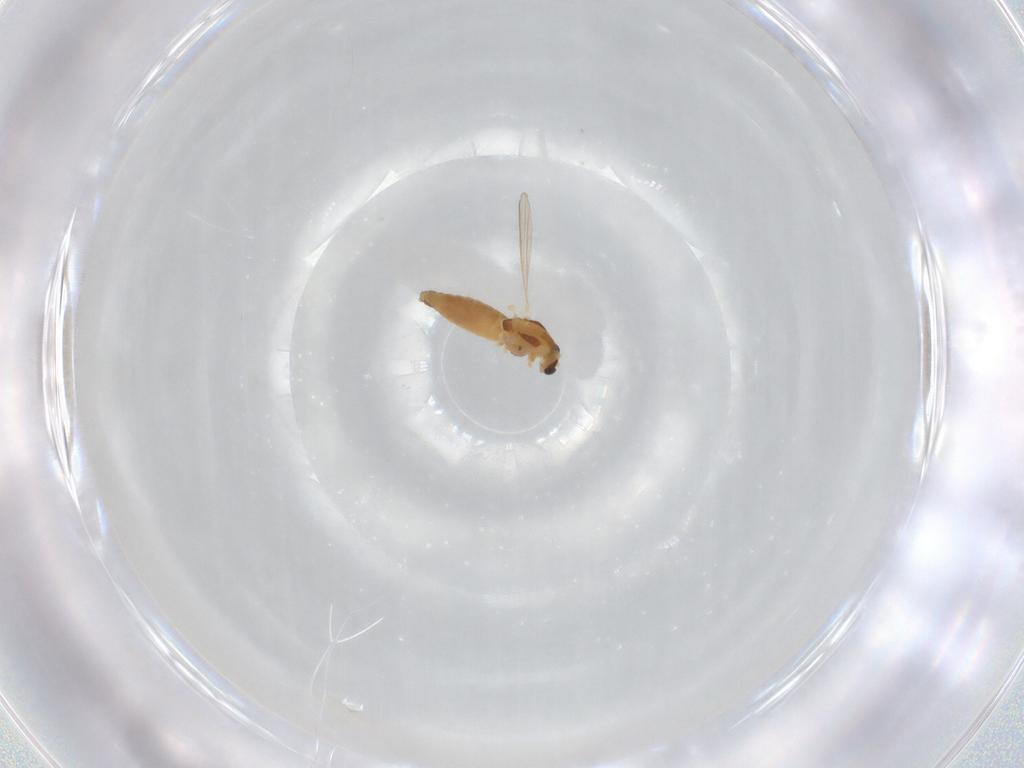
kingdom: Animalia
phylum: Arthropoda
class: Insecta
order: Diptera
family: Chironomidae
